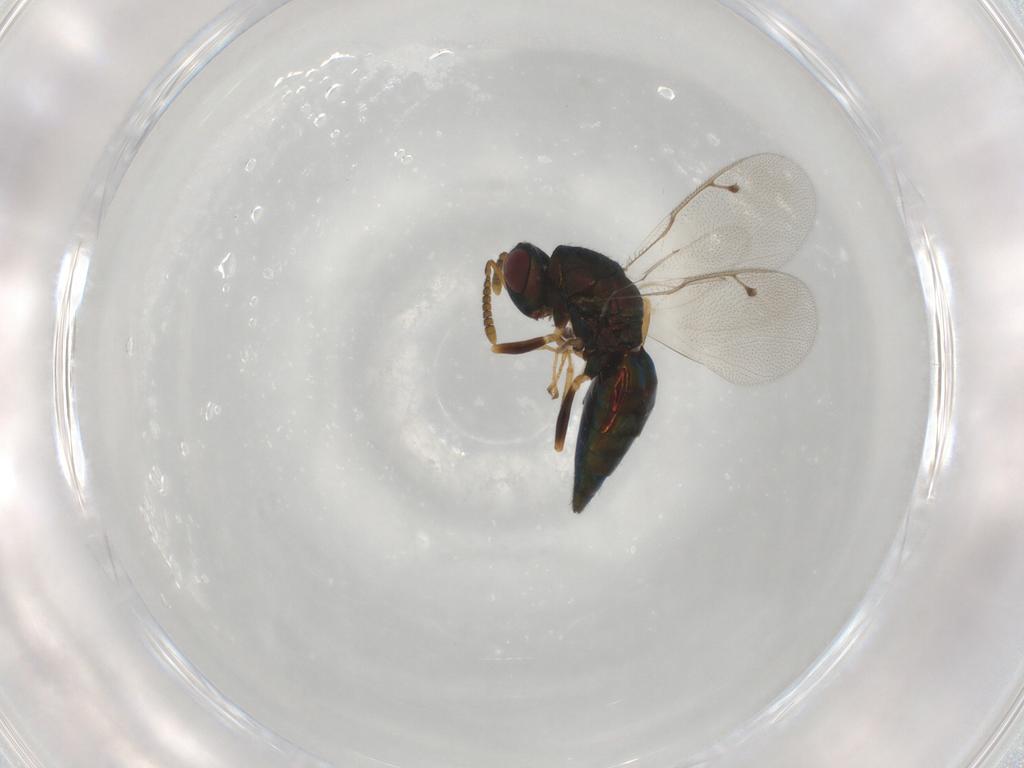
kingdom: Animalia
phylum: Arthropoda
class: Insecta
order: Hymenoptera
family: Pteromalidae
